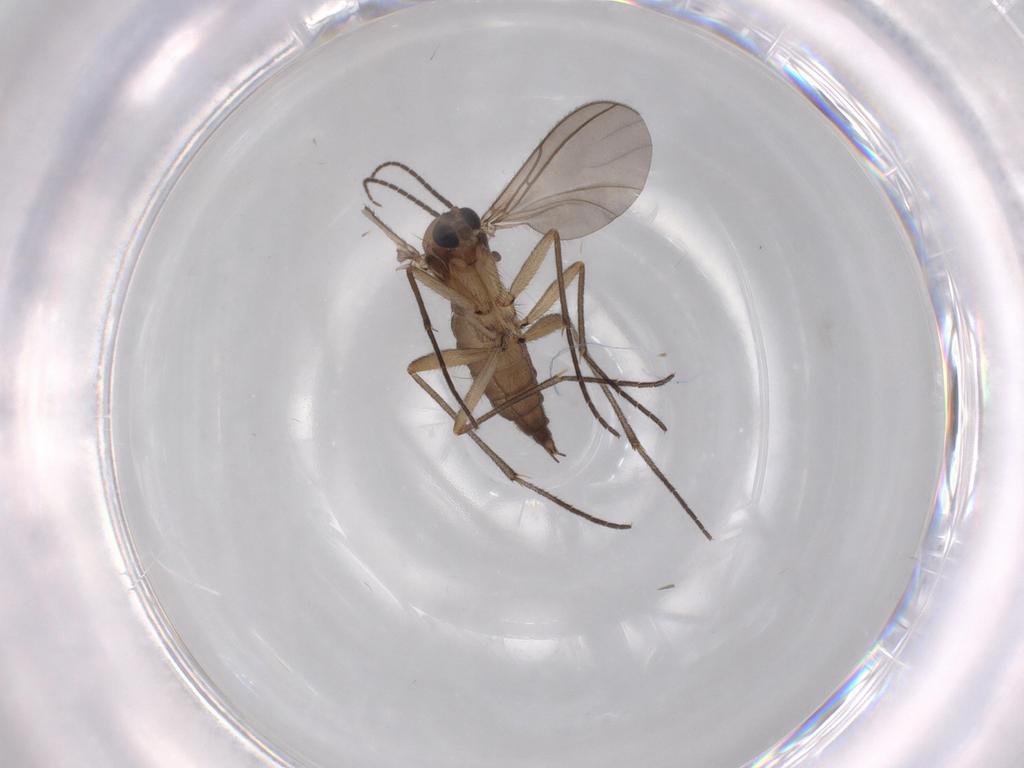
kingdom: Animalia
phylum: Arthropoda
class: Insecta
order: Diptera
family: Sciaridae
